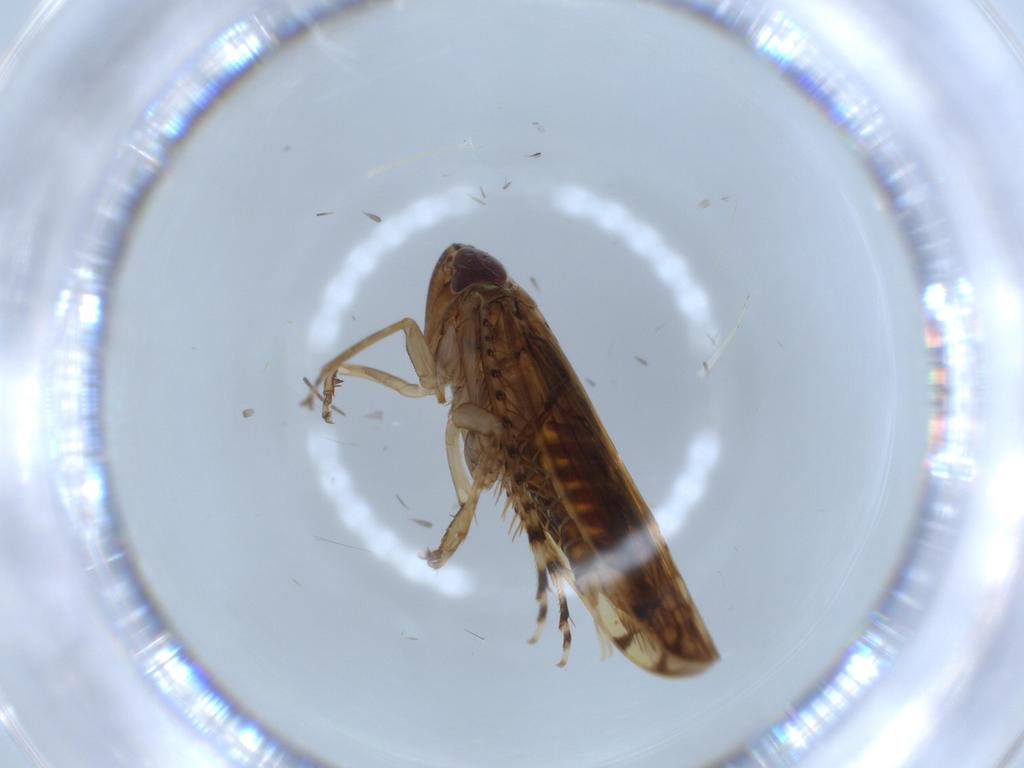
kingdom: Animalia
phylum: Arthropoda
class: Insecta
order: Hemiptera
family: Cicadellidae
